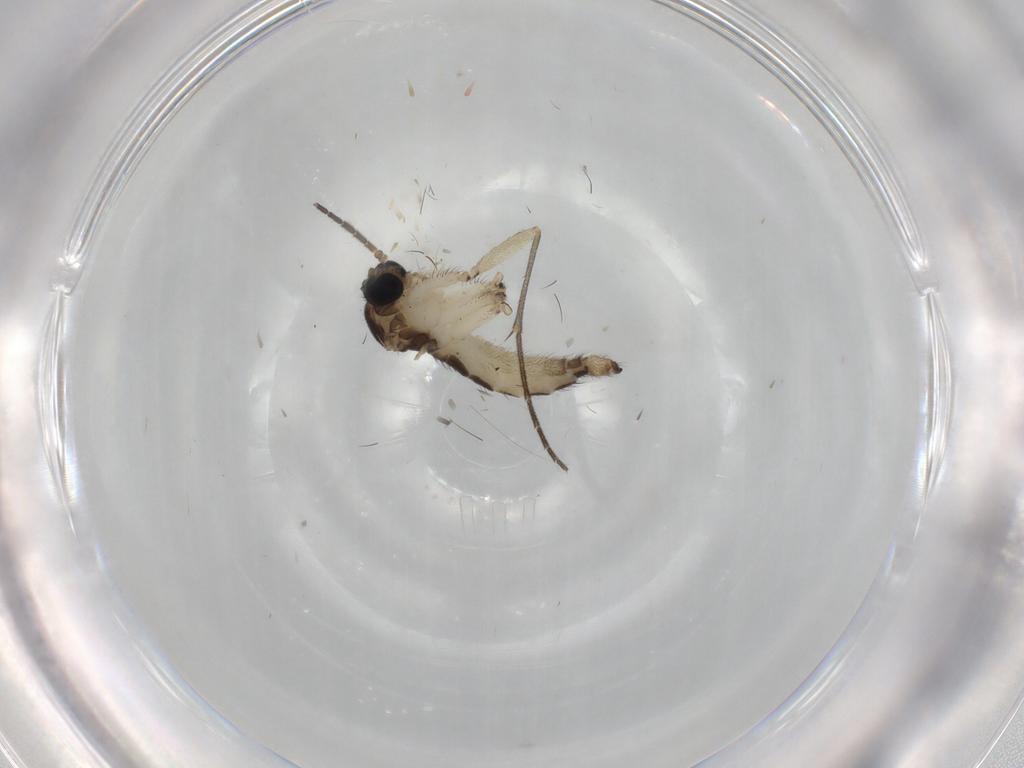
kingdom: Animalia
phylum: Arthropoda
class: Insecta
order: Diptera
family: Sciaridae
